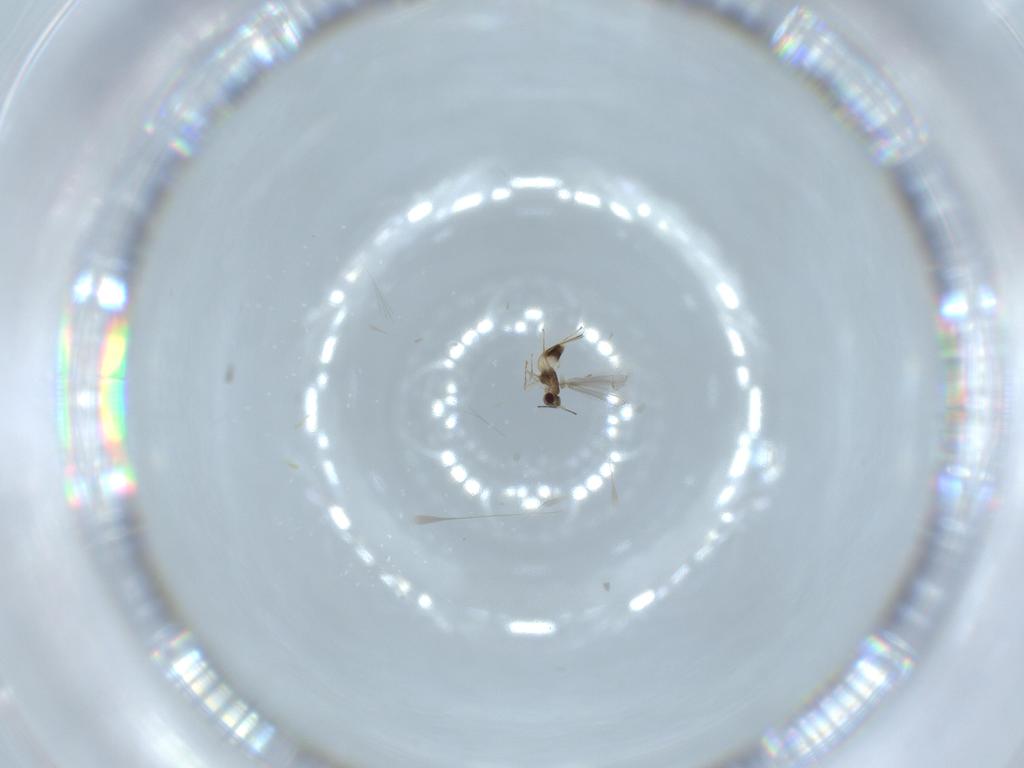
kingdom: Animalia
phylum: Arthropoda
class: Insecta
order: Hymenoptera
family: Mymaridae
